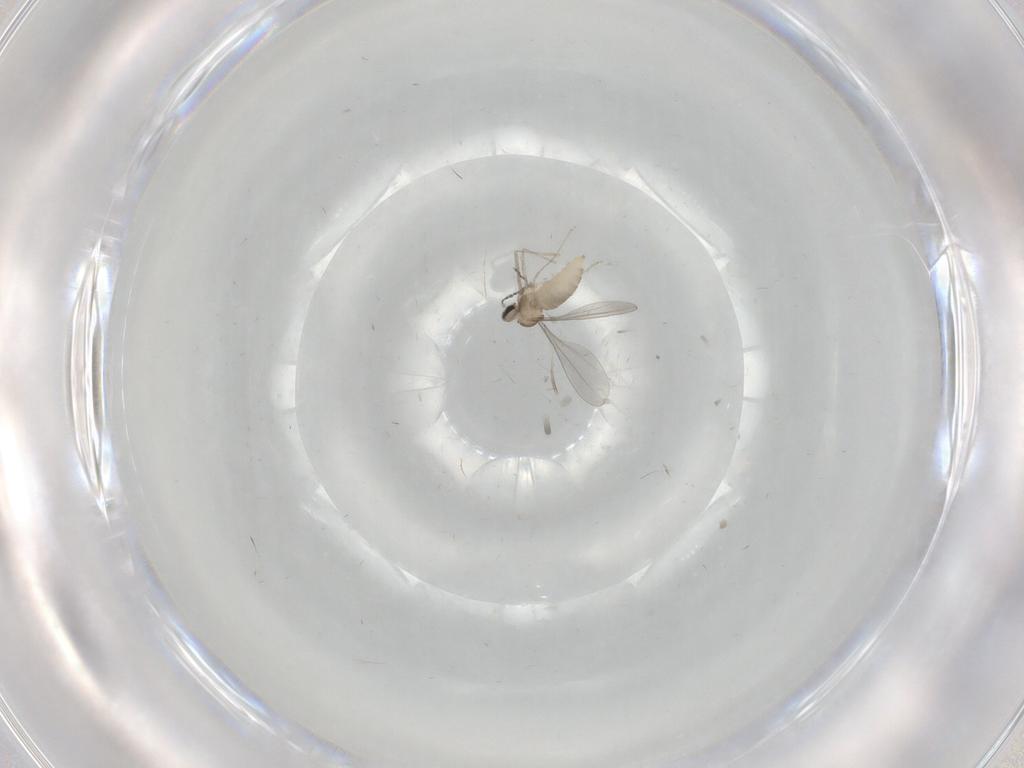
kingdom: Animalia
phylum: Arthropoda
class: Insecta
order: Diptera
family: Cecidomyiidae
